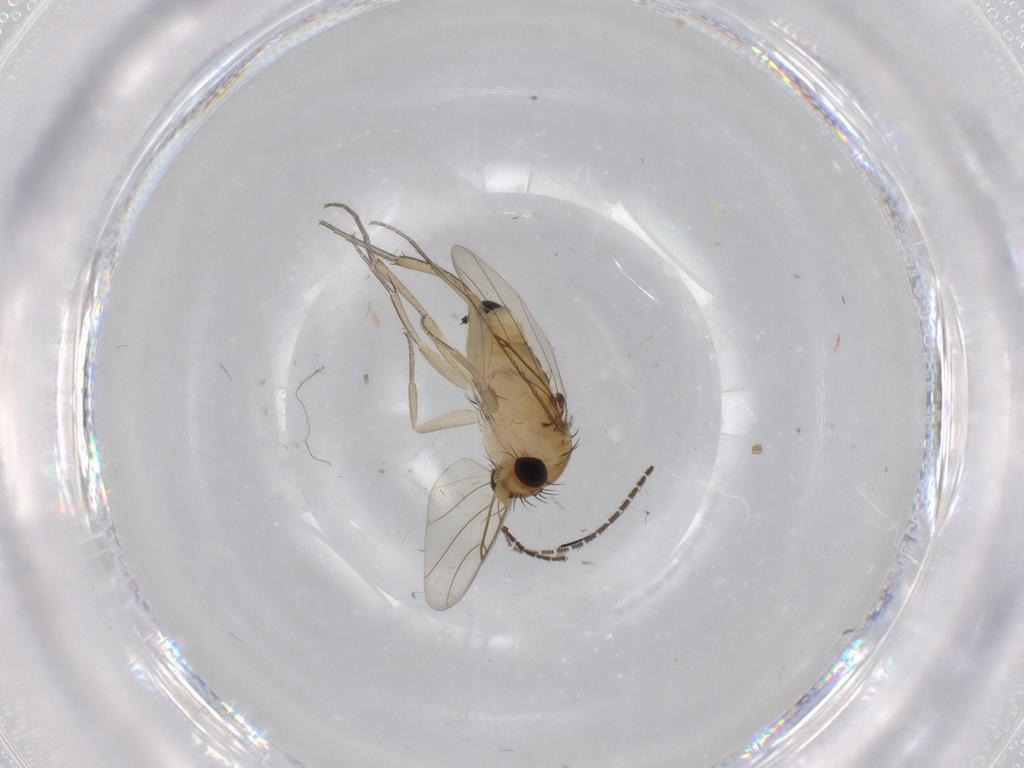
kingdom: Animalia
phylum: Arthropoda
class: Insecta
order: Diptera
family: Phoridae
